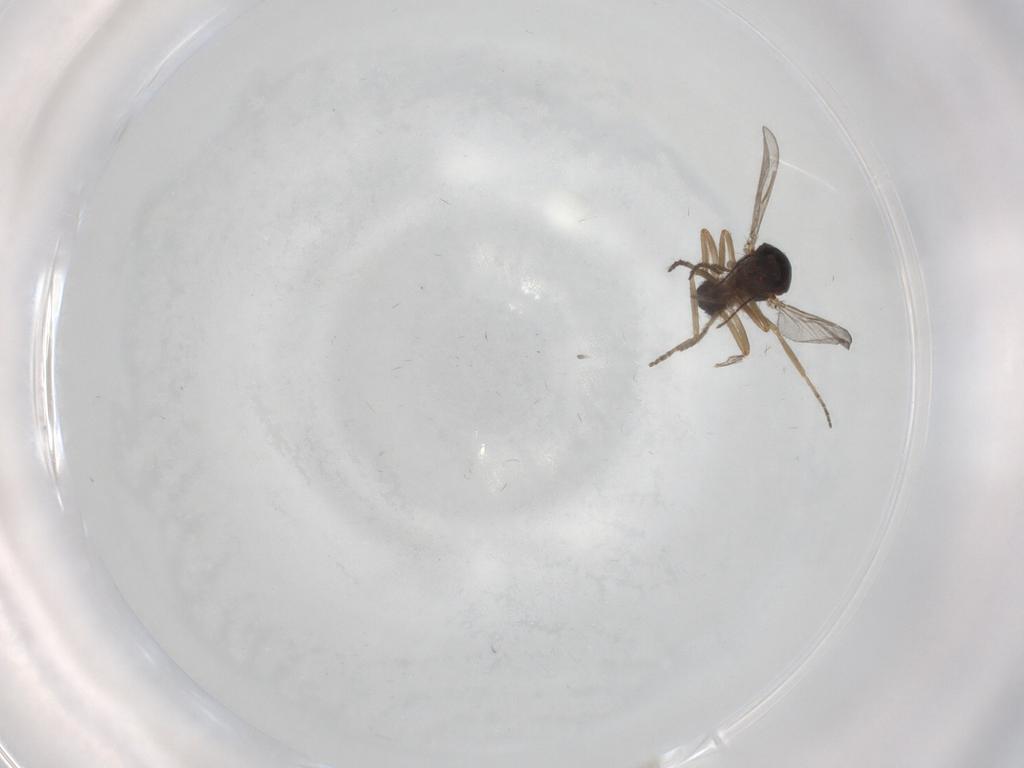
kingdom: Animalia
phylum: Arthropoda
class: Insecta
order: Diptera
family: Ceratopogonidae
